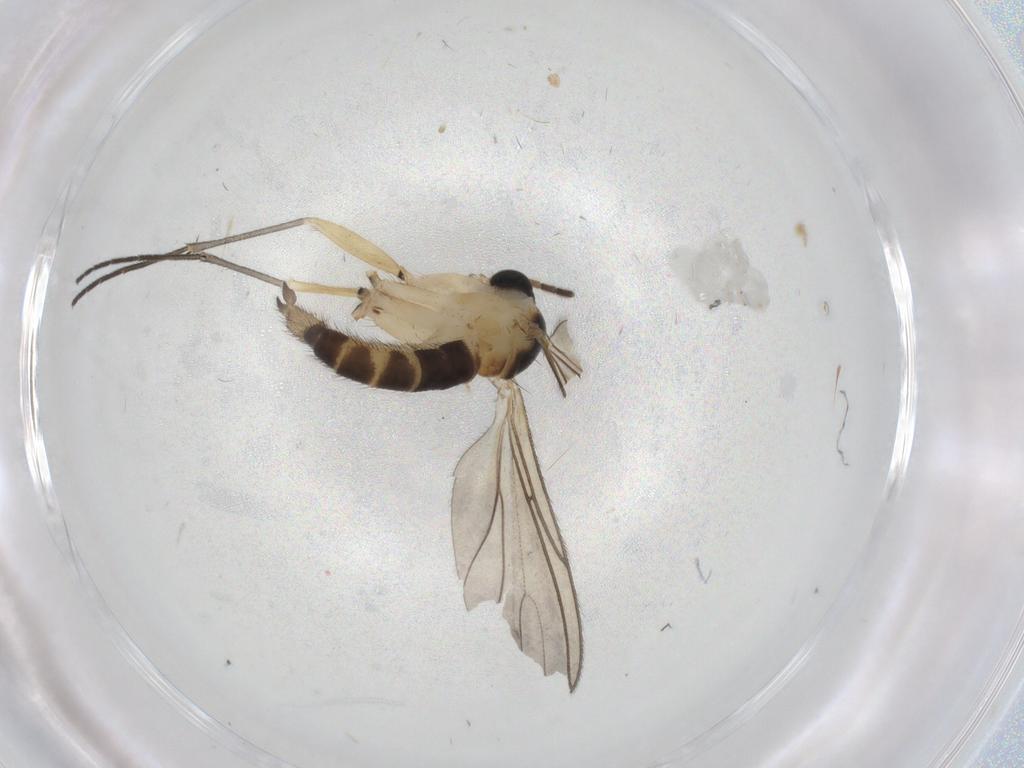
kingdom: Animalia
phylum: Arthropoda
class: Insecta
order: Diptera
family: Sciaridae
